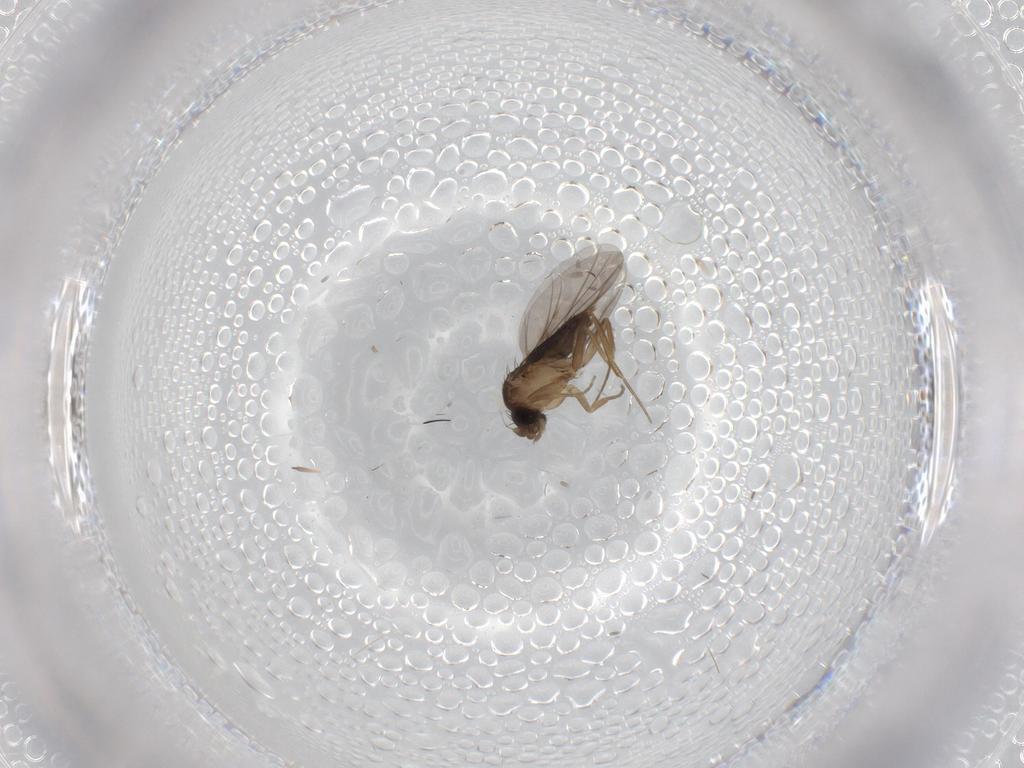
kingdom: Animalia
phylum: Arthropoda
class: Insecta
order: Diptera
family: Phoridae
